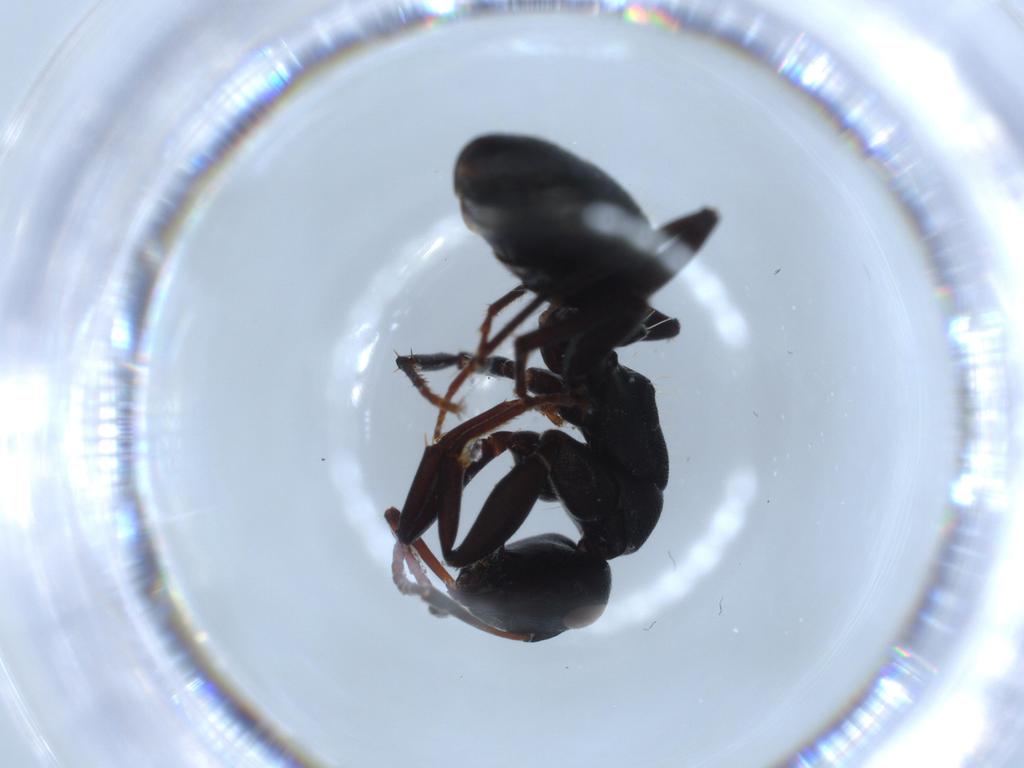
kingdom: Animalia
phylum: Arthropoda
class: Insecta
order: Hymenoptera
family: Formicidae
